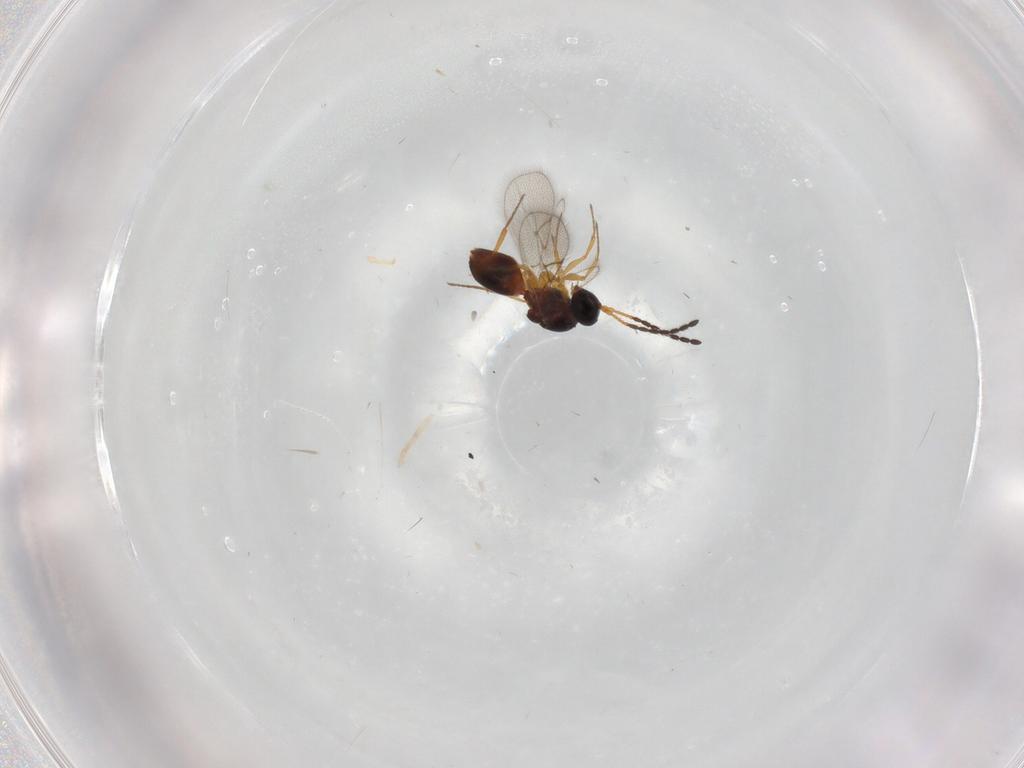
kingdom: Animalia
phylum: Arthropoda
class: Insecta
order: Hymenoptera
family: Figitidae
